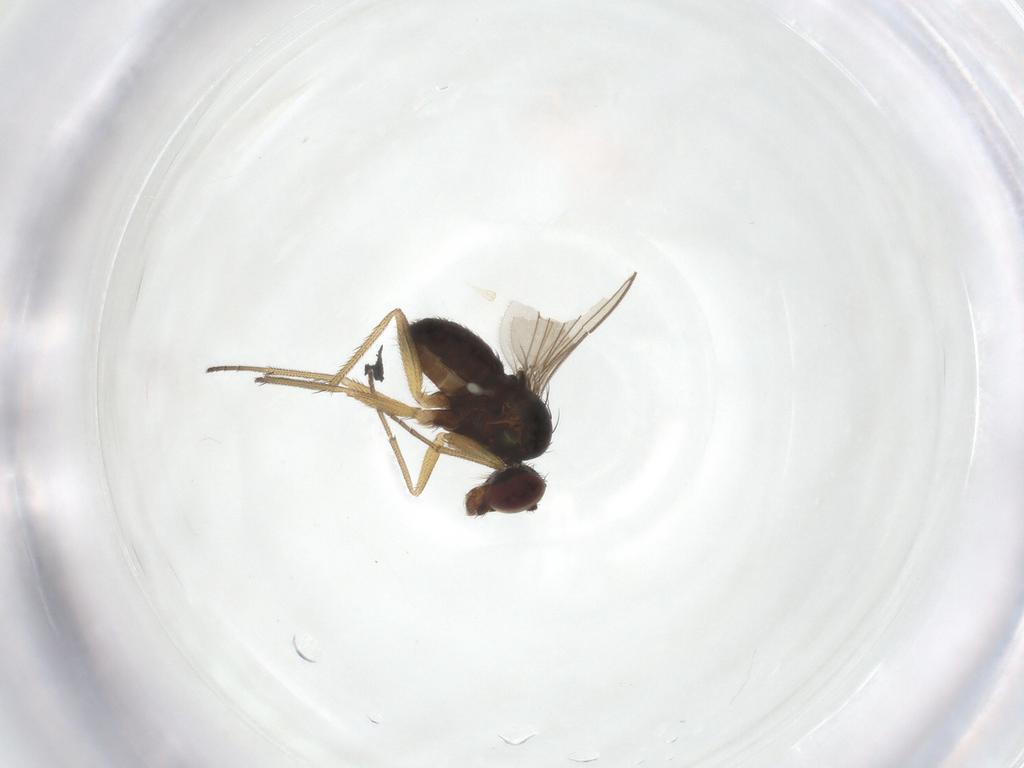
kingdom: Animalia
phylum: Arthropoda
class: Insecta
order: Diptera
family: Dolichopodidae
